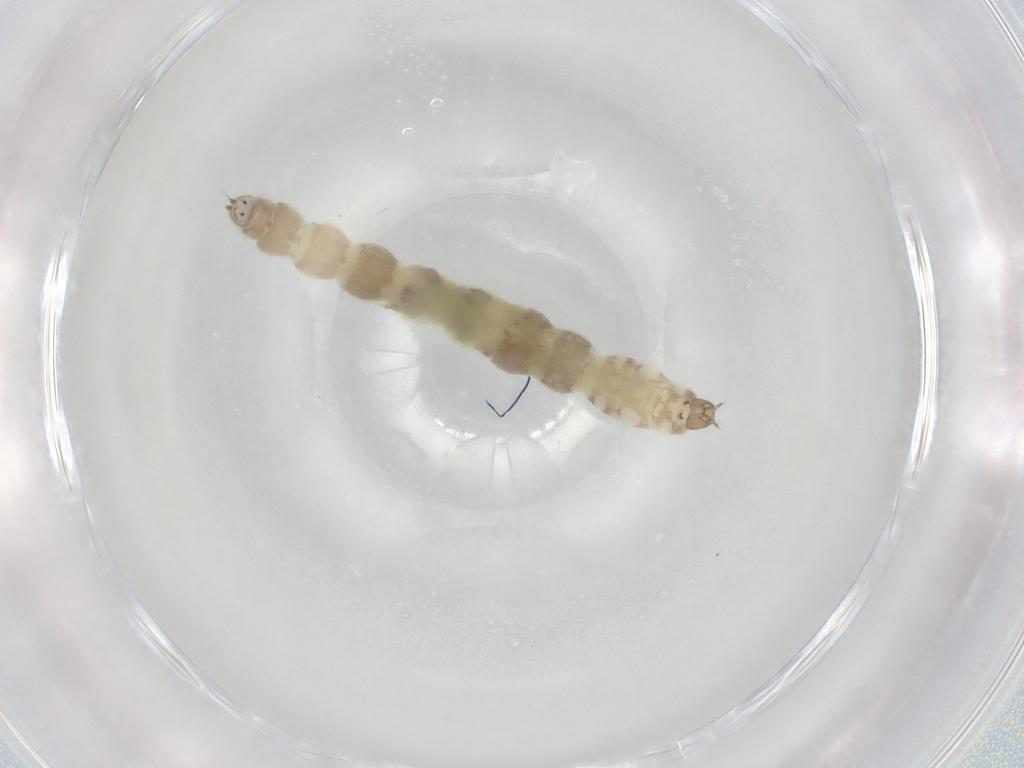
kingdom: Animalia
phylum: Arthropoda
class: Insecta
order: Diptera
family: Chironomidae
